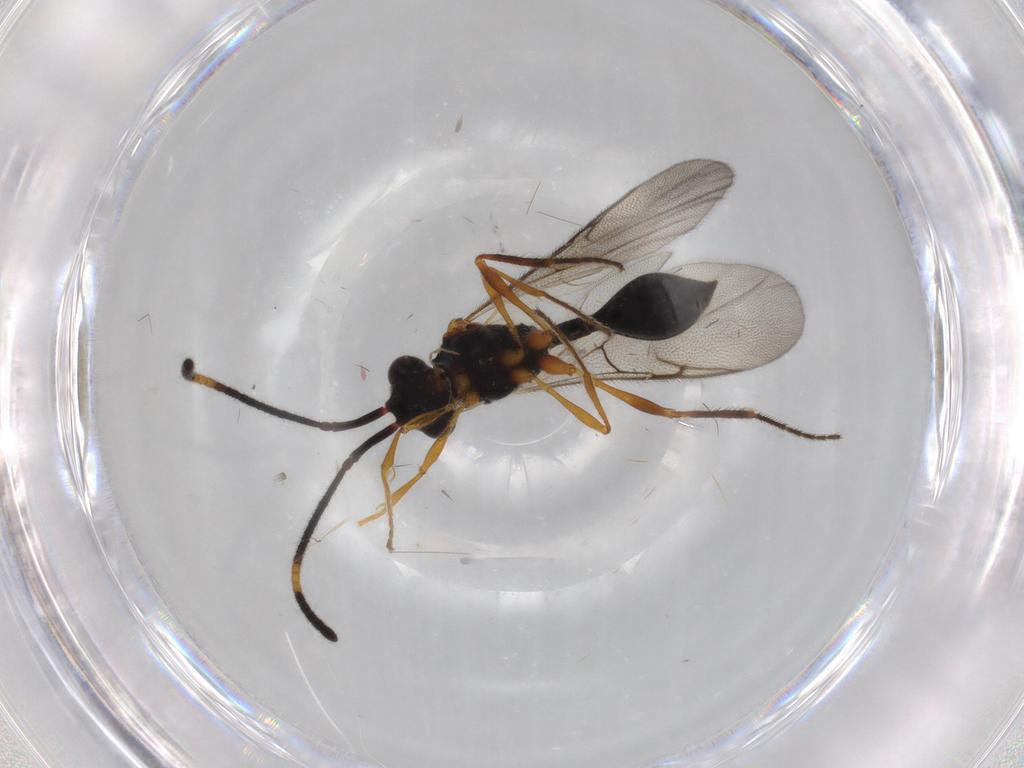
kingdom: Animalia
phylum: Arthropoda
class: Insecta
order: Hymenoptera
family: Diapriidae
